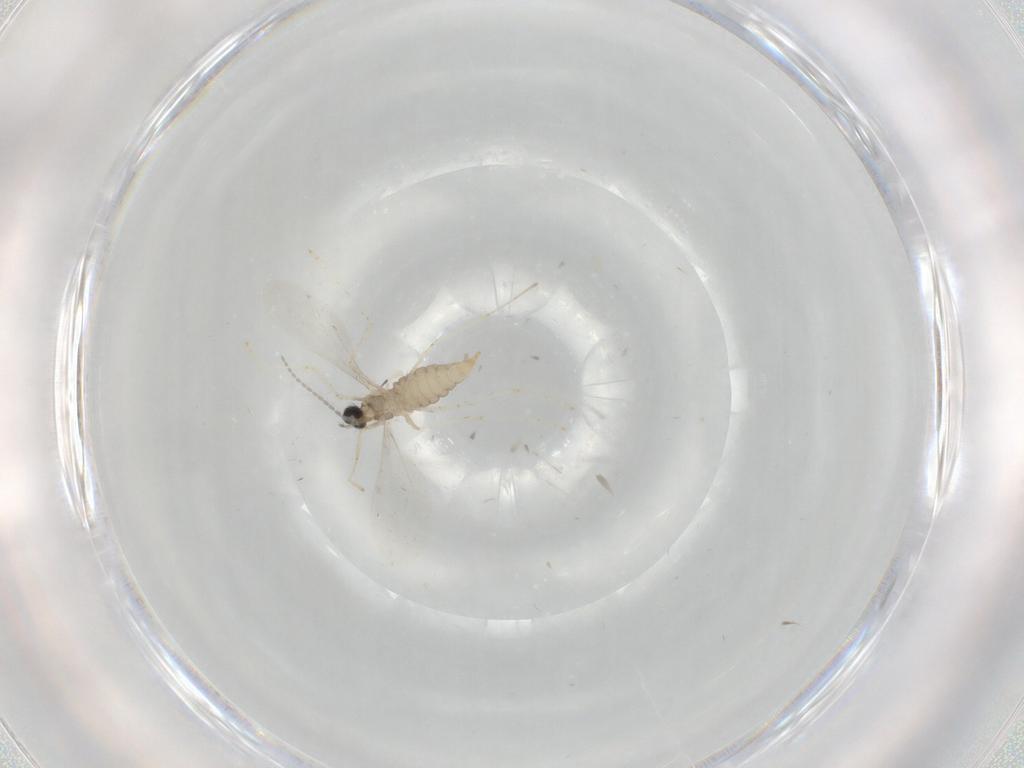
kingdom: Animalia
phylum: Arthropoda
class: Insecta
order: Diptera
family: Cecidomyiidae
